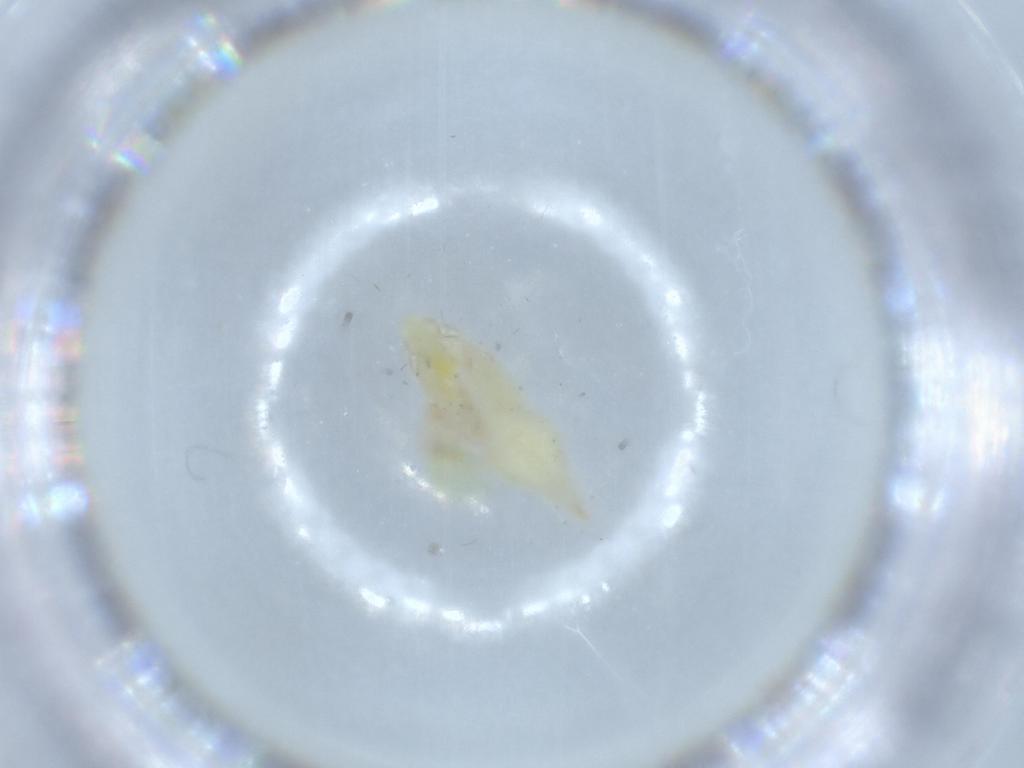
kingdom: Animalia
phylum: Arthropoda
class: Insecta
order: Hemiptera
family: Cicadellidae
